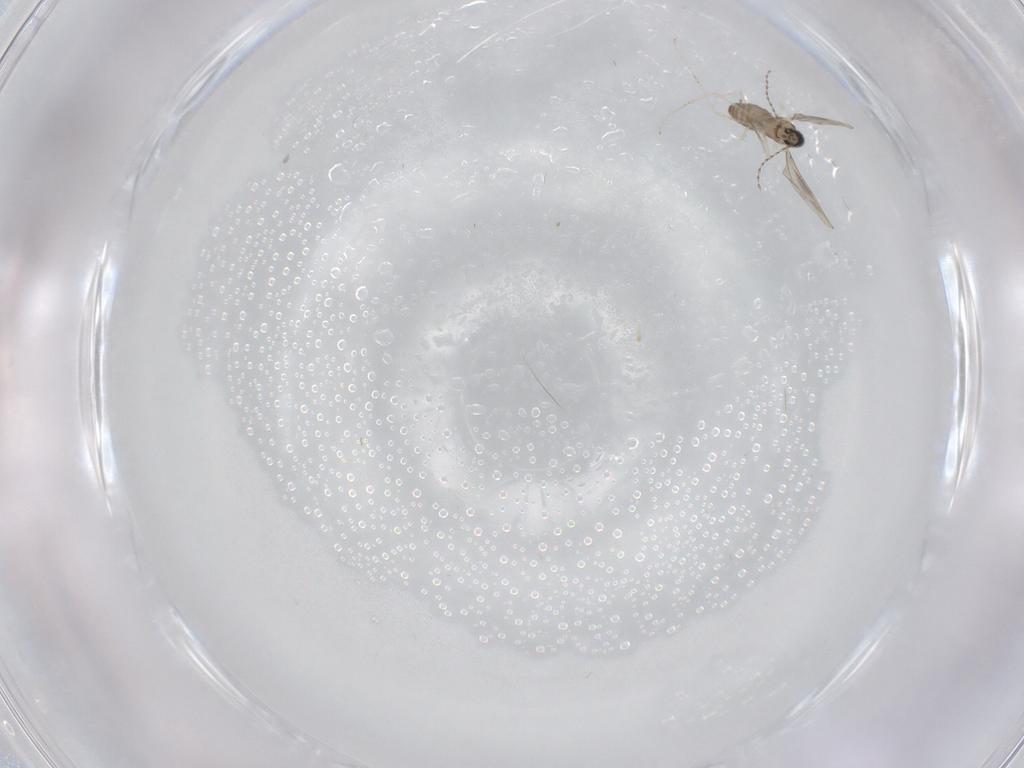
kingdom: Animalia
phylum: Arthropoda
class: Insecta
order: Diptera
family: Cecidomyiidae
